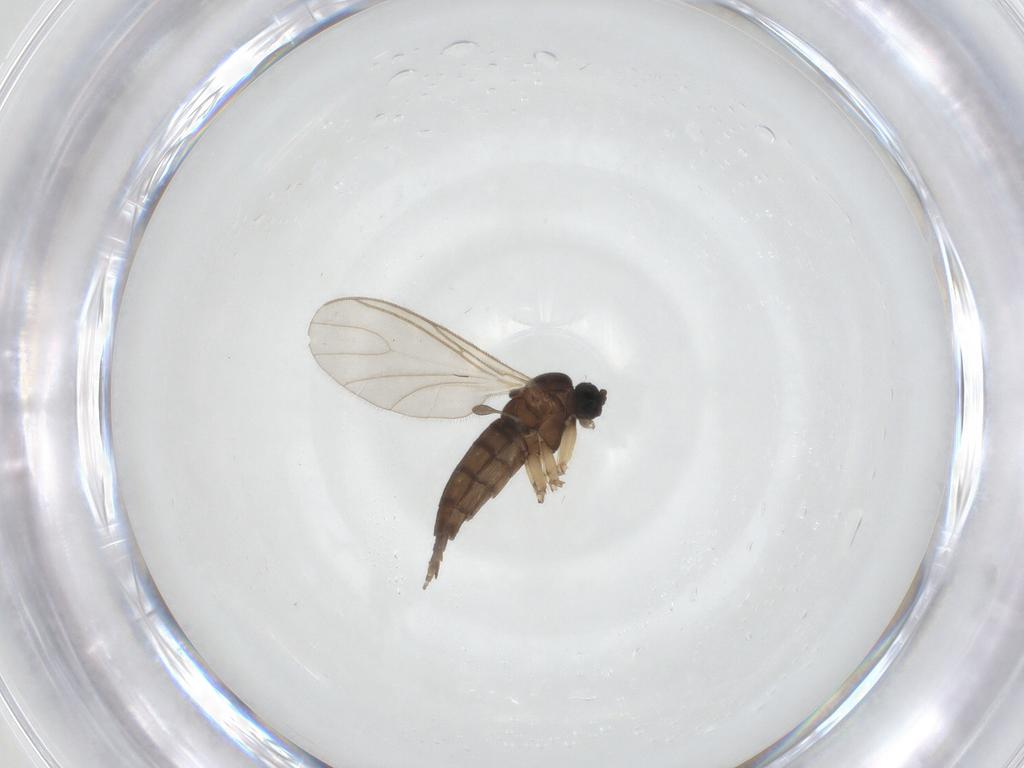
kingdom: Animalia
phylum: Arthropoda
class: Insecta
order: Diptera
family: Sciaridae
